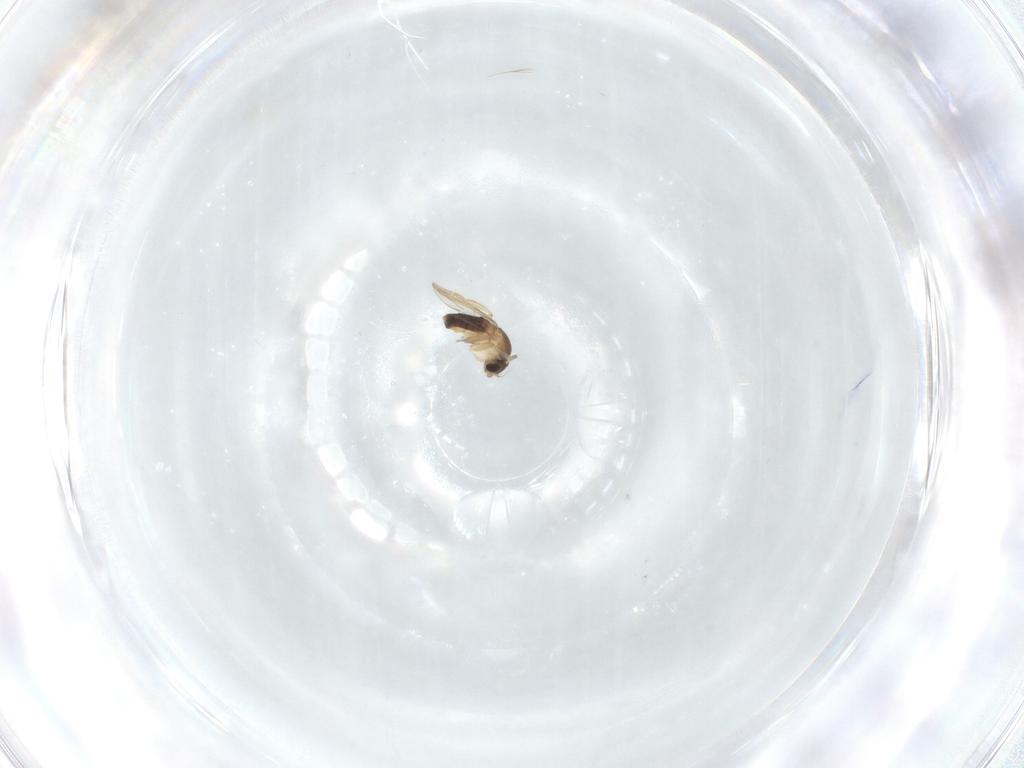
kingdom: Animalia
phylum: Arthropoda
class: Insecta
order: Diptera
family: Phoridae
